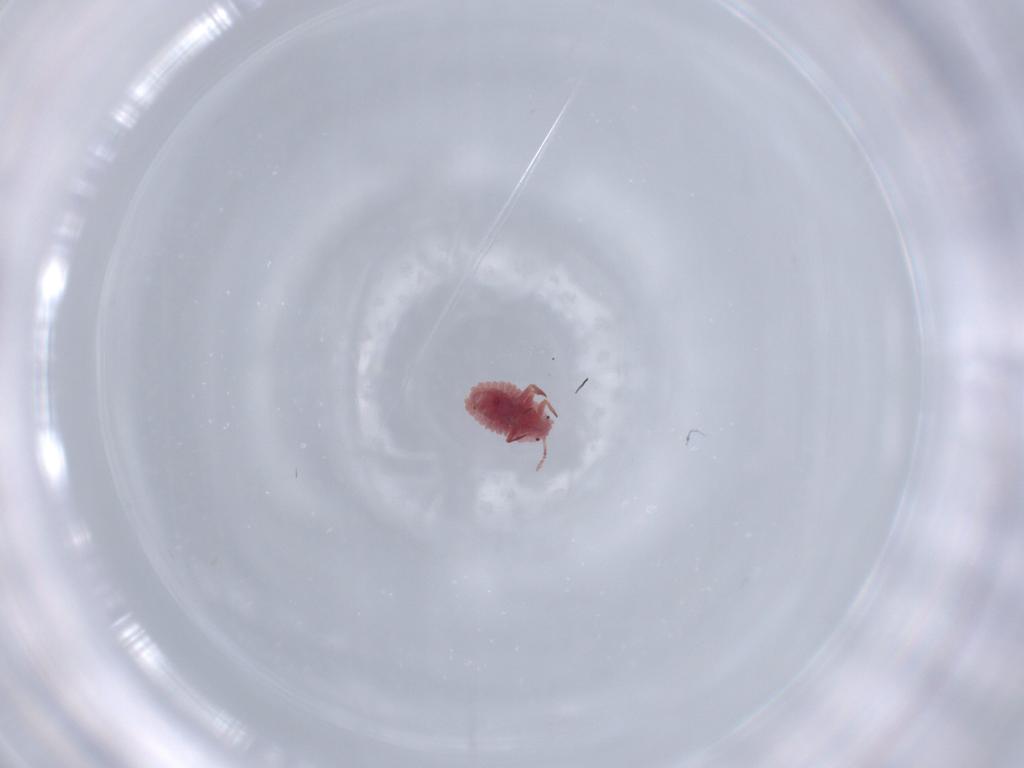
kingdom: Animalia
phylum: Arthropoda
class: Insecta
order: Hemiptera
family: Pseudococcidae
